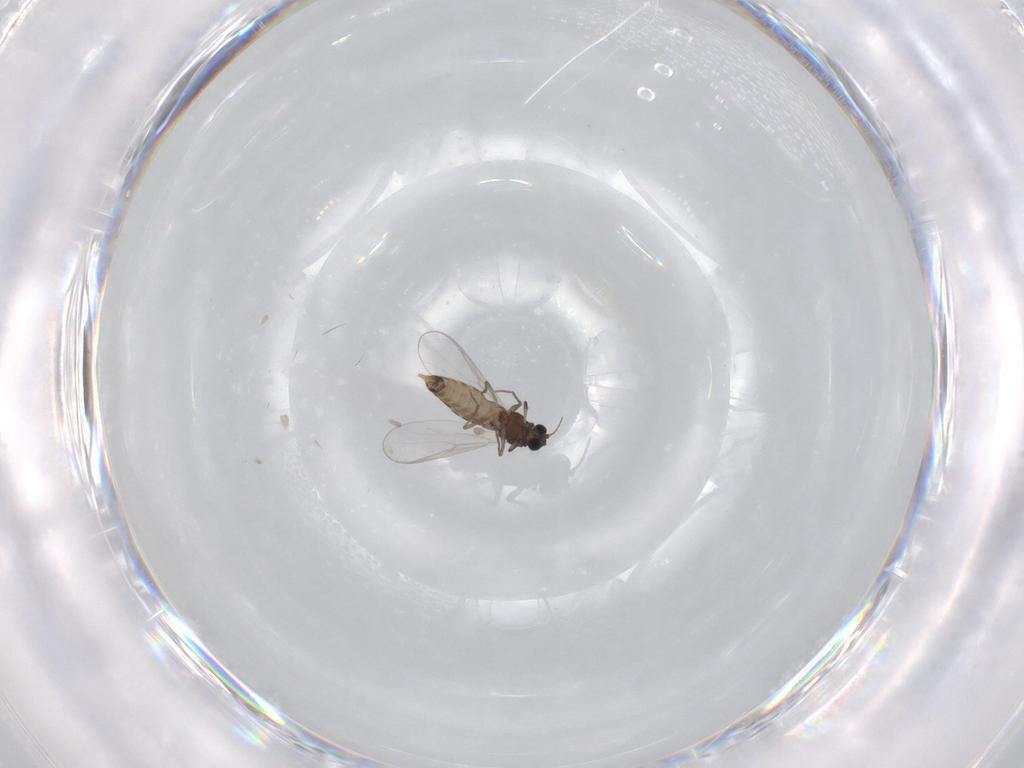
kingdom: Animalia
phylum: Arthropoda
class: Insecta
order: Diptera
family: Chironomidae
